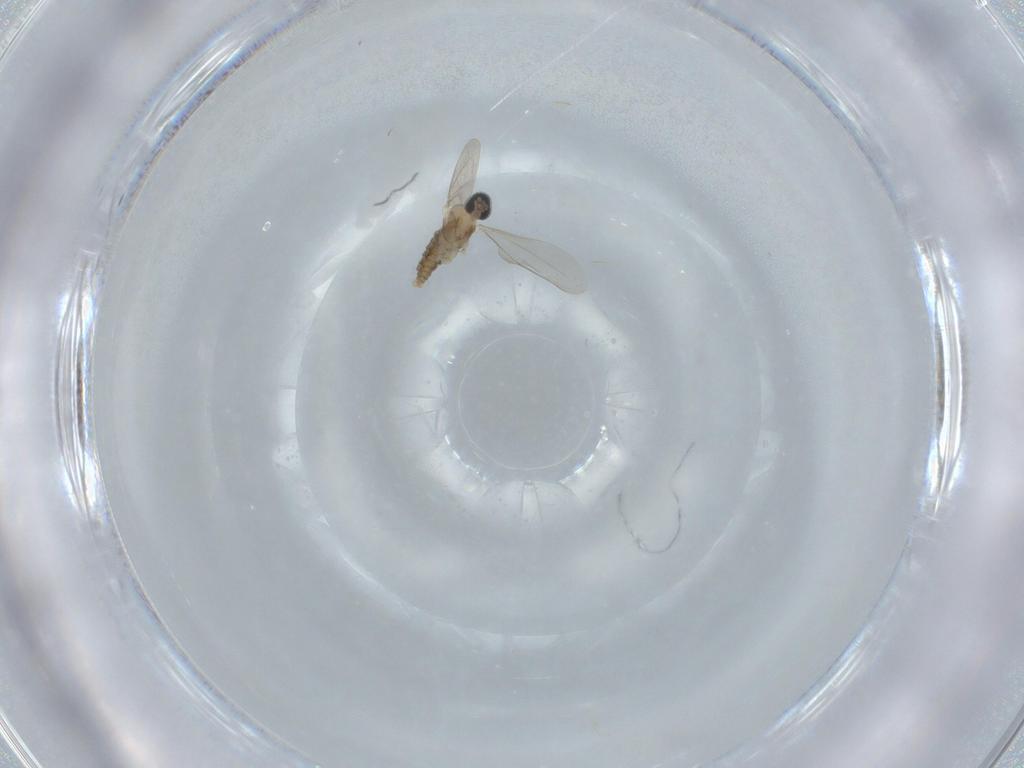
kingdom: Animalia
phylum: Arthropoda
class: Insecta
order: Diptera
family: Cecidomyiidae
